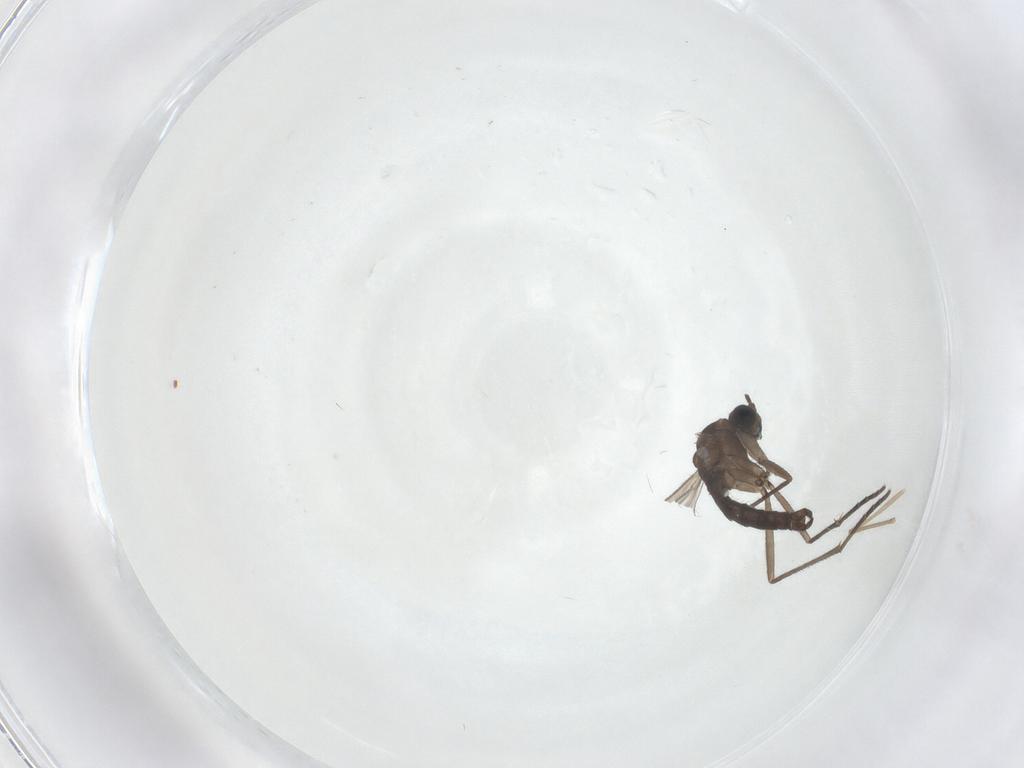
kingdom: Animalia
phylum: Arthropoda
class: Insecta
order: Diptera
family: Sciaridae
